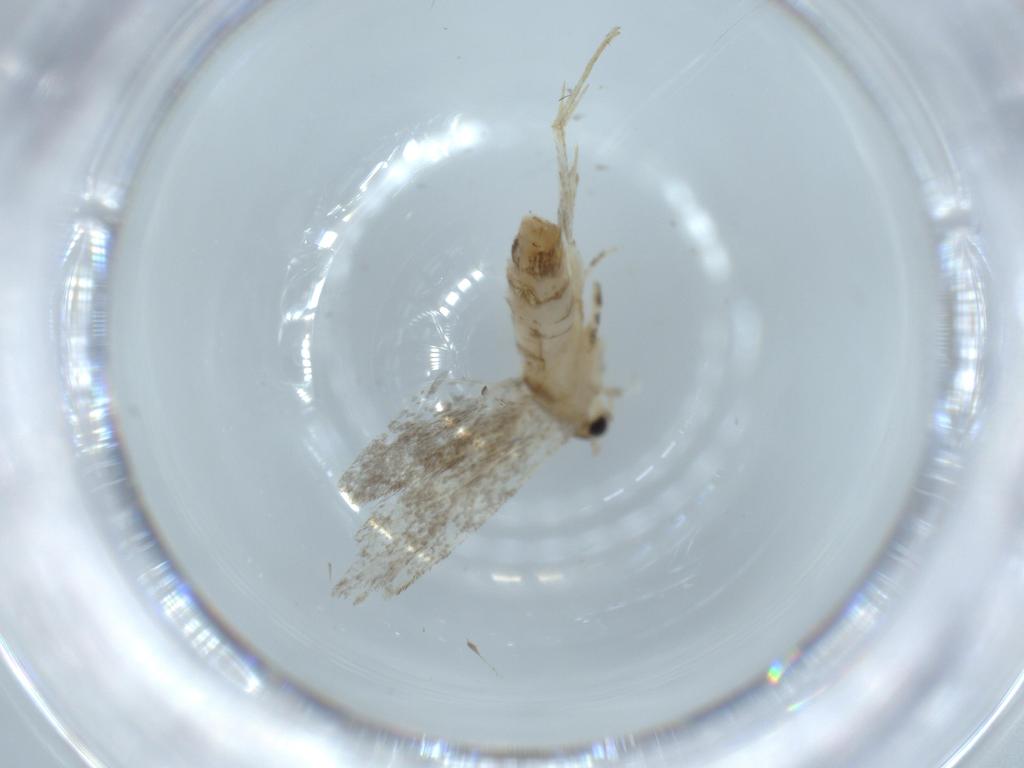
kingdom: Animalia
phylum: Arthropoda
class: Insecta
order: Lepidoptera
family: Tineidae
